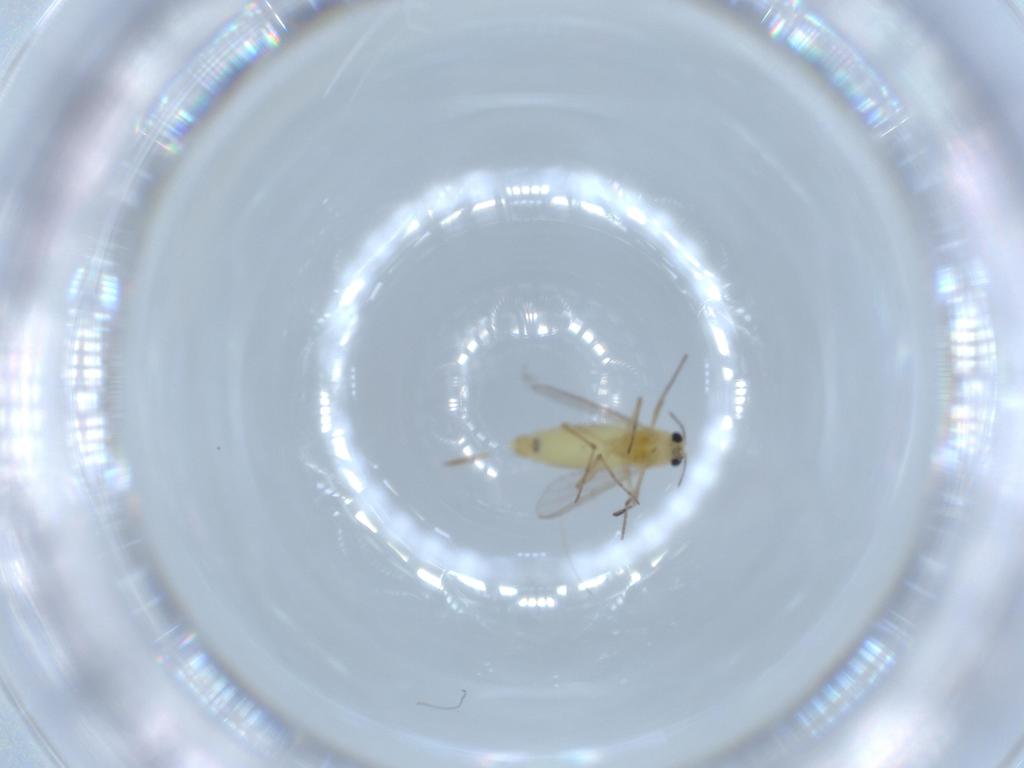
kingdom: Animalia
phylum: Arthropoda
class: Insecta
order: Diptera
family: Chironomidae
